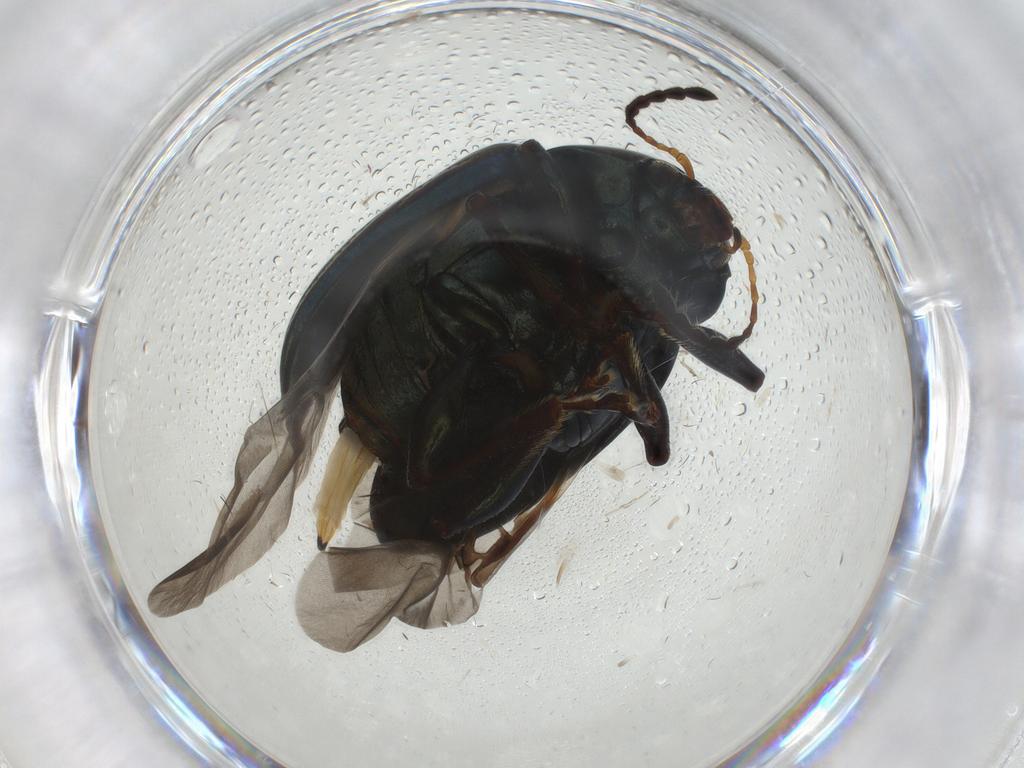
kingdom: Animalia
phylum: Arthropoda
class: Insecta
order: Coleoptera
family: Chrysomelidae
